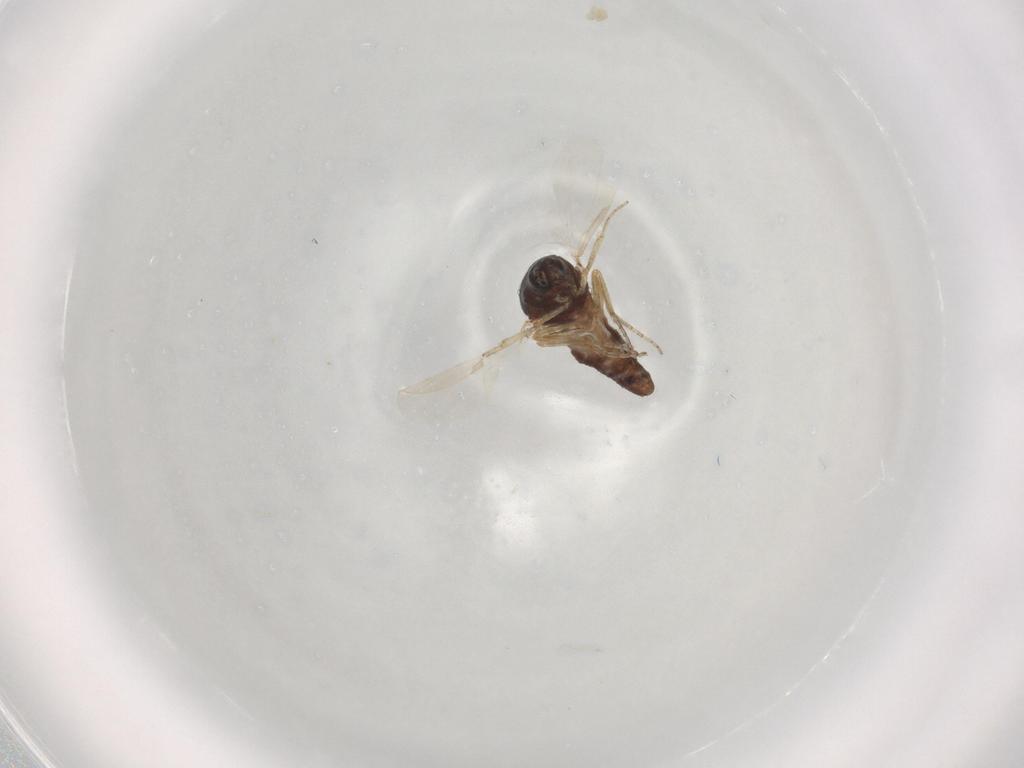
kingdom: Animalia
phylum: Arthropoda
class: Insecta
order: Diptera
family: Ceratopogonidae
